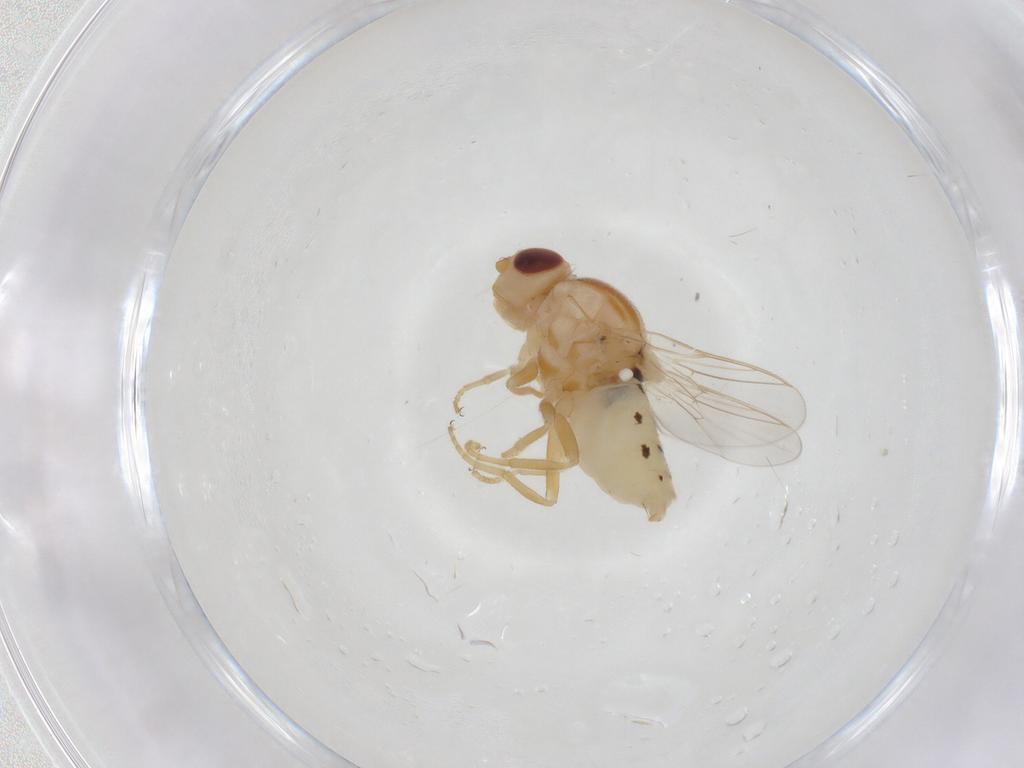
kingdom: Animalia
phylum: Arthropoda
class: Insecta
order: Diptera
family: Chloropidae
